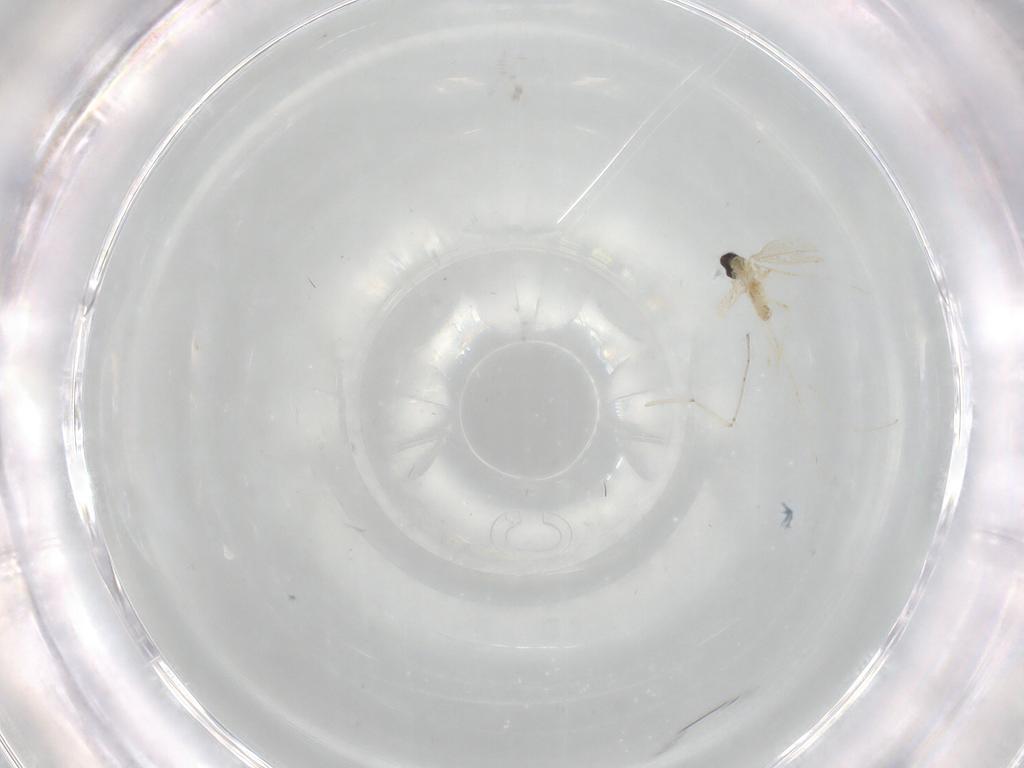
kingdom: Animalia
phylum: Arthropoda
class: Insecta
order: Diptera
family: Cecidomyiidae
